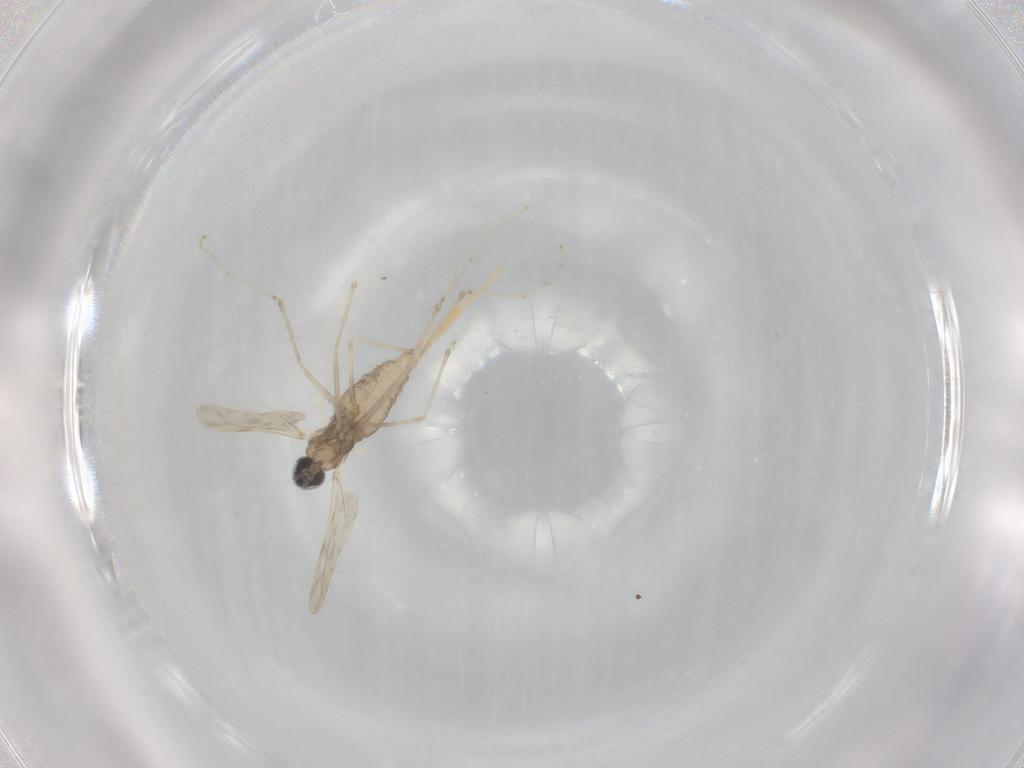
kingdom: Animalia
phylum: Arthropoda
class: Insecta
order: Diptera
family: Cecidomyiidae
